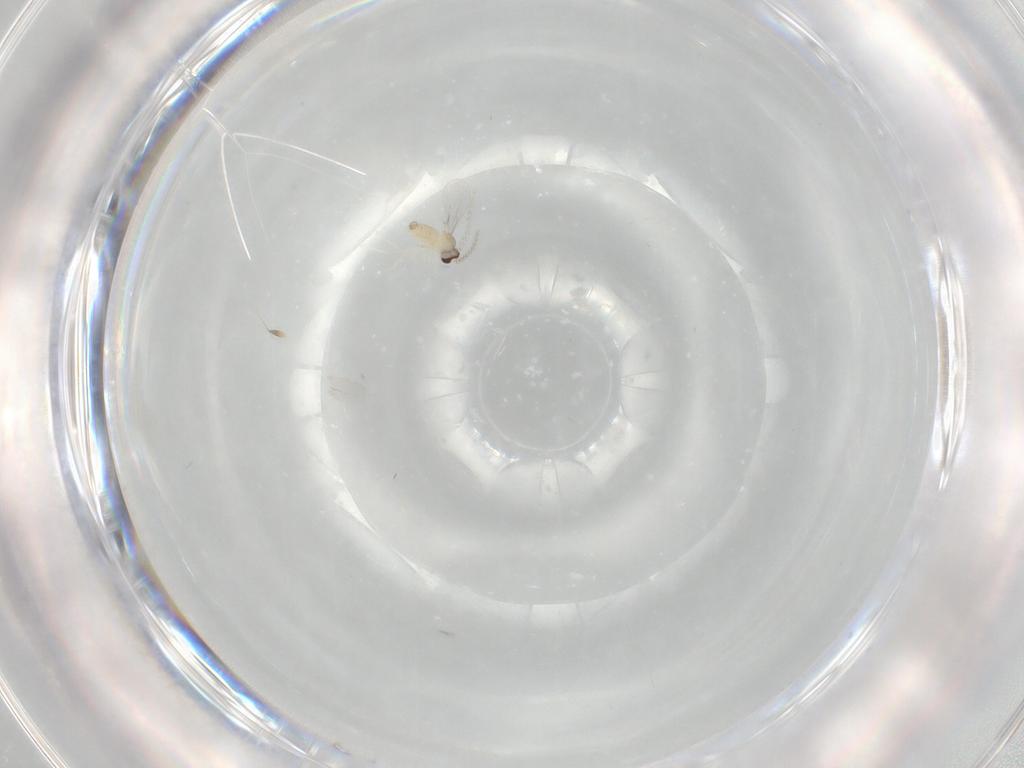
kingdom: Animalia
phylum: Arthropoda
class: Insecta
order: Diptera
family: Cecidomyiidae
